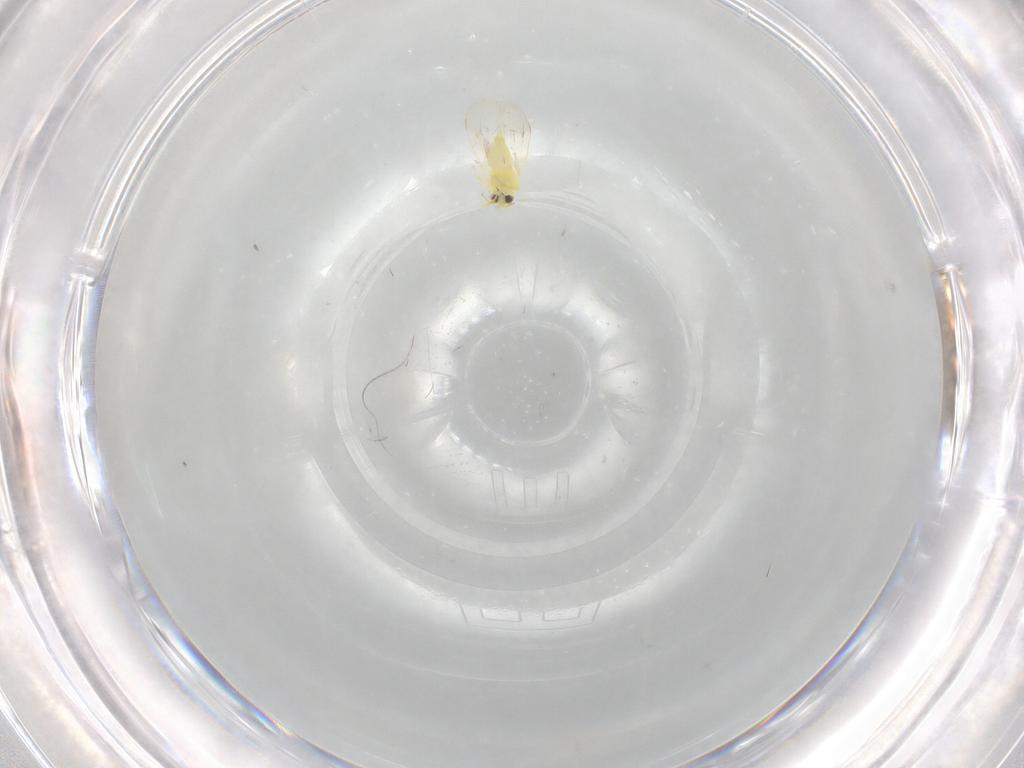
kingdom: Animalia
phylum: Arthropoda
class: Insecta
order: Hemiptera
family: Aleyrodidae
